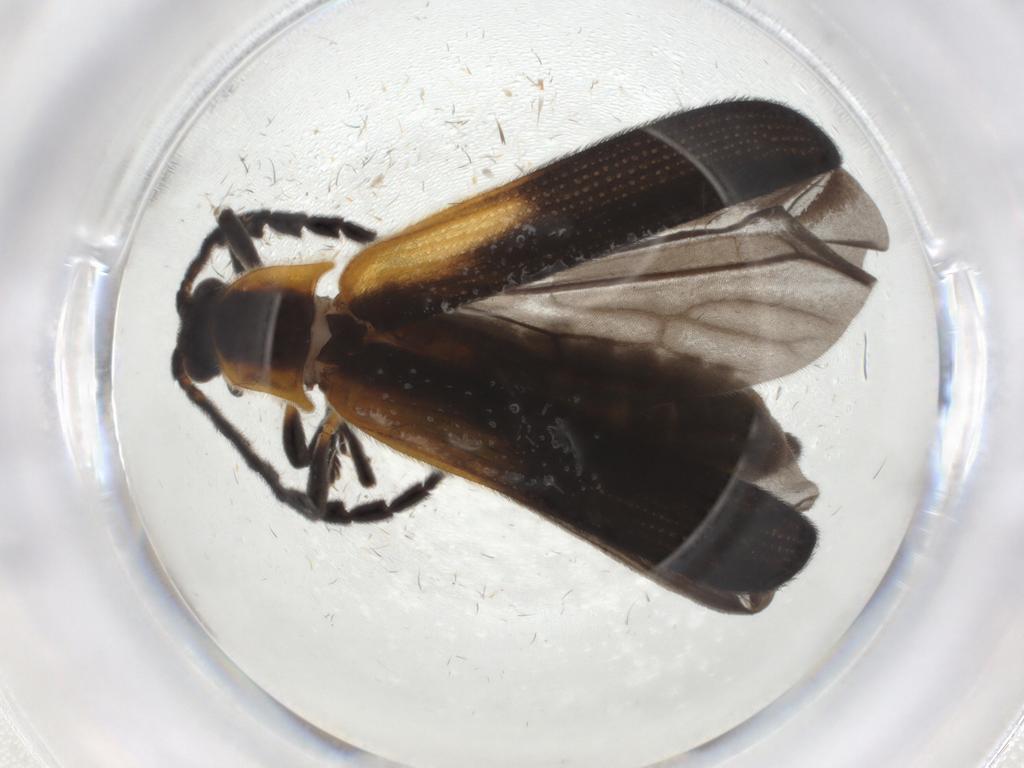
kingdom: Animalia
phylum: Arthropoda
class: Insecta
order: Coleoptera
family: Lycidae
